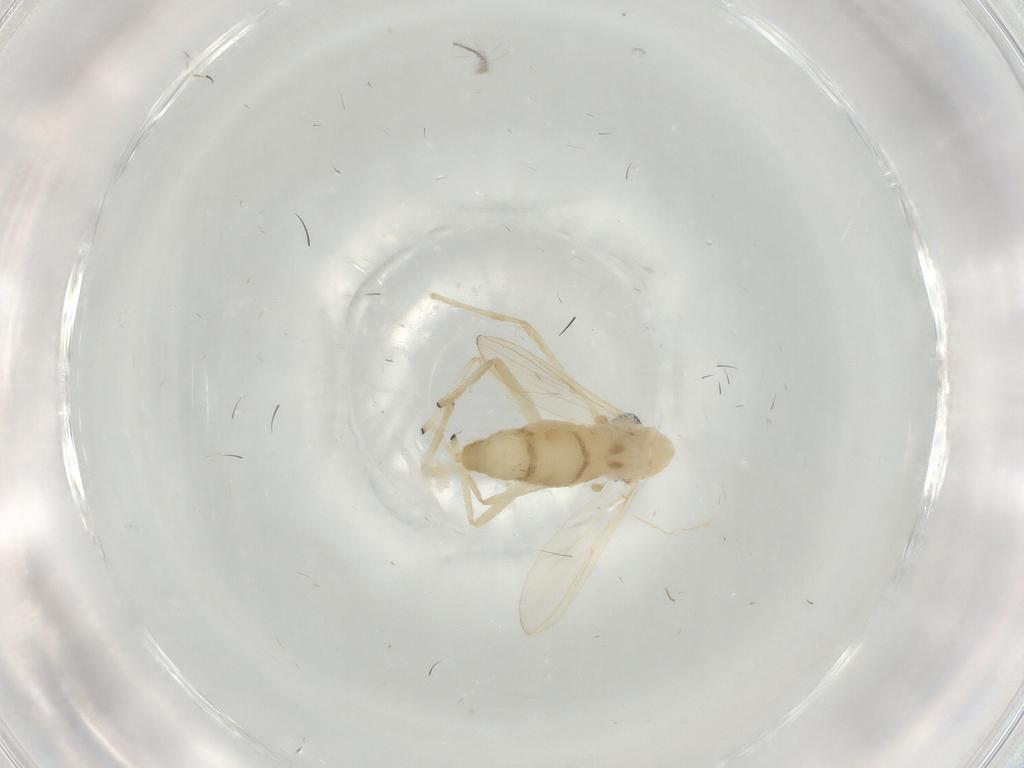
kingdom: Animalia
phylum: Arthropoda
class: Insecta
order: Diptera
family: Chironomidae
